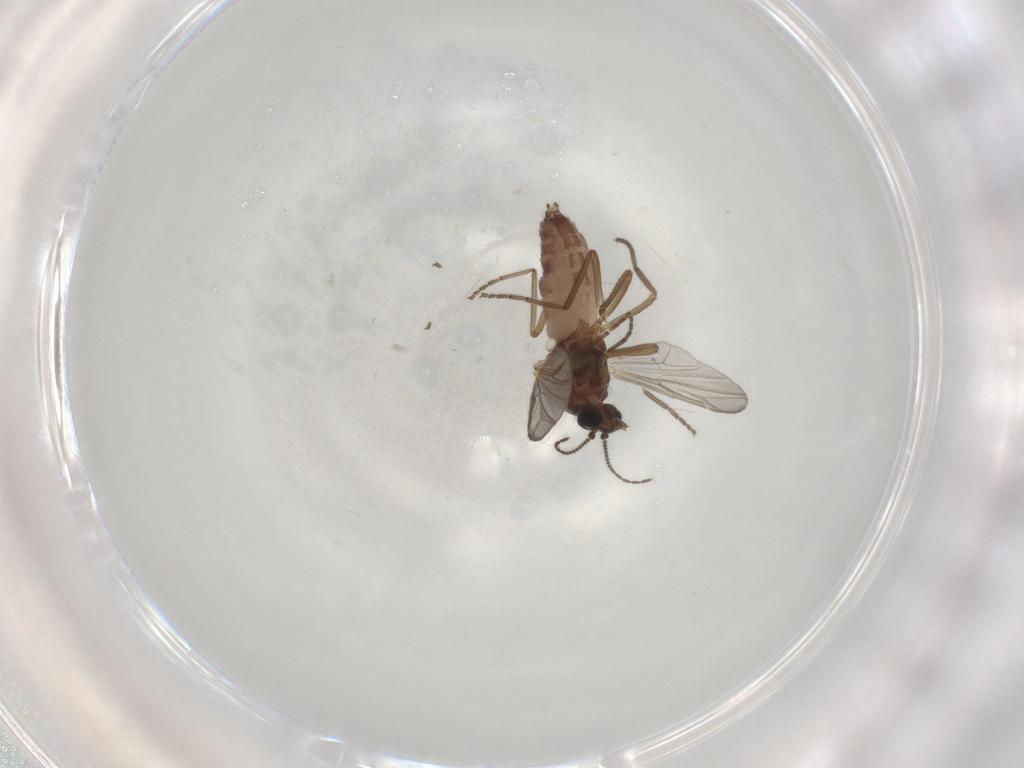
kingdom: Animalia
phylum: Arthropoda
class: Insecta
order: Diptera
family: Ceratopogonidae
